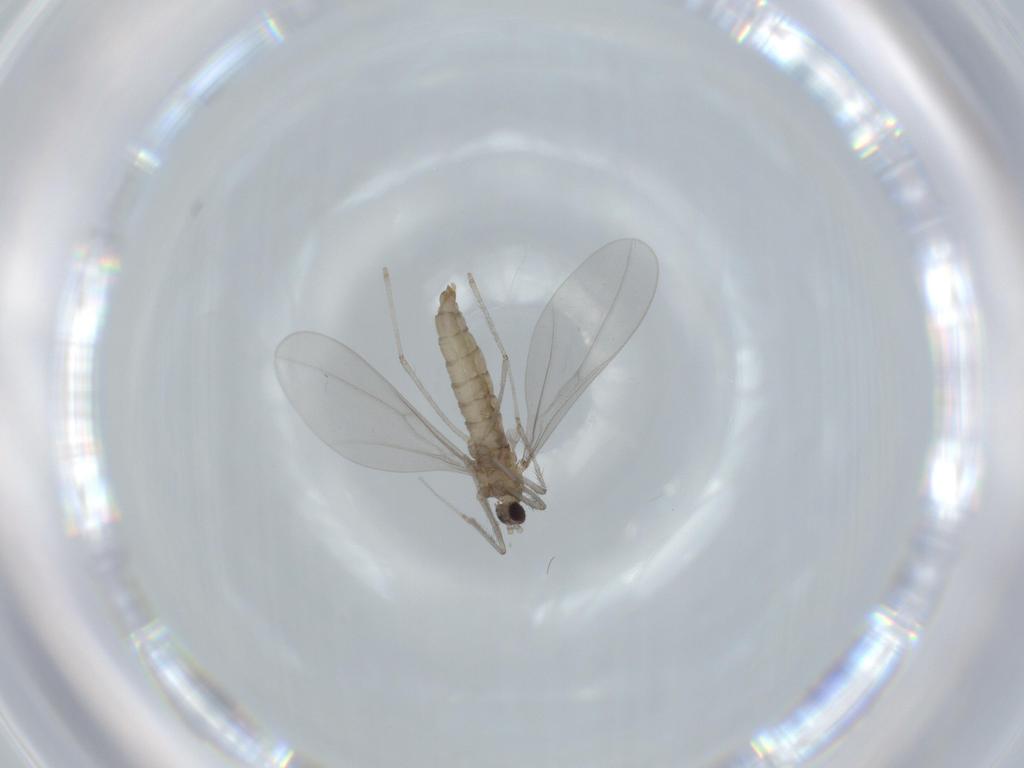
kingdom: Animalia
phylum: Arthropoda
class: Insecta
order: Diptera
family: Cecidomyiidae
